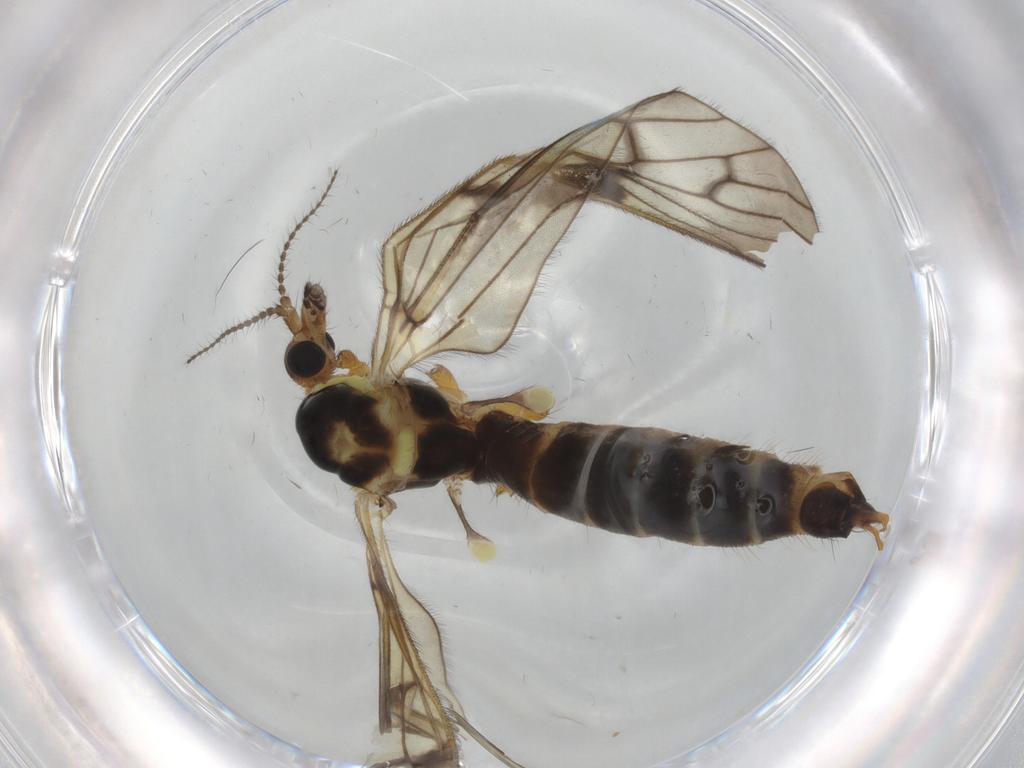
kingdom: Animalia
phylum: Arthropoda
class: Insecta
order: Diptera
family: Limoniidae
